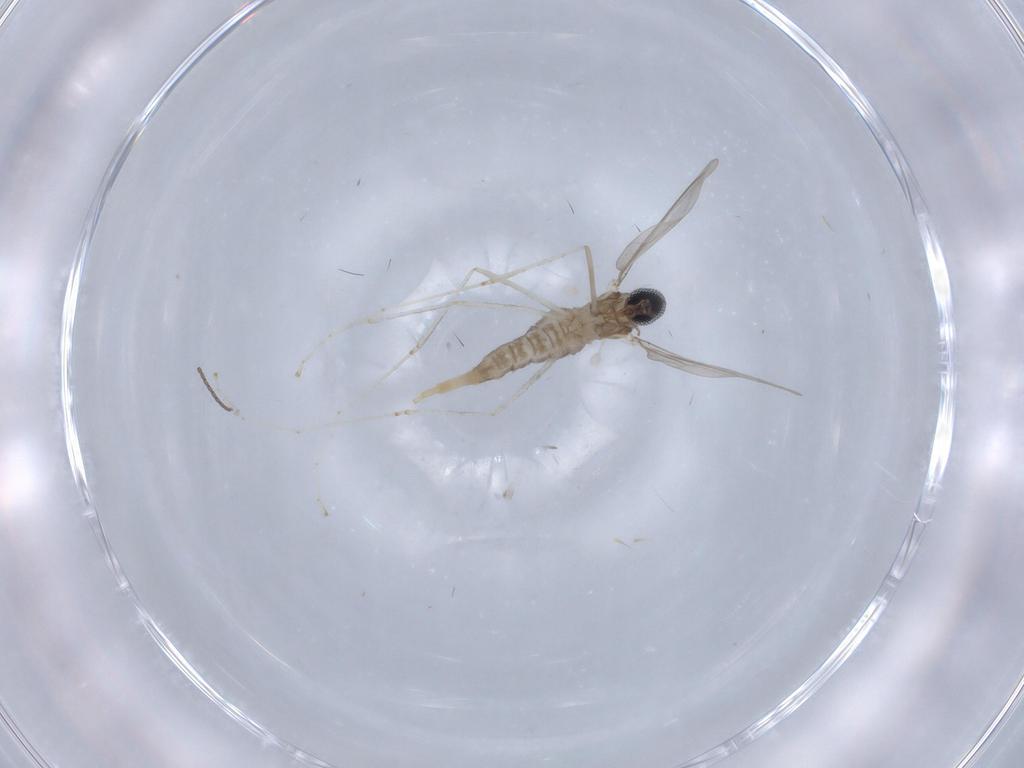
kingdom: Animalia
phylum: Arthropoda
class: Insecta
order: Diptera
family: Cecidomyiidae
